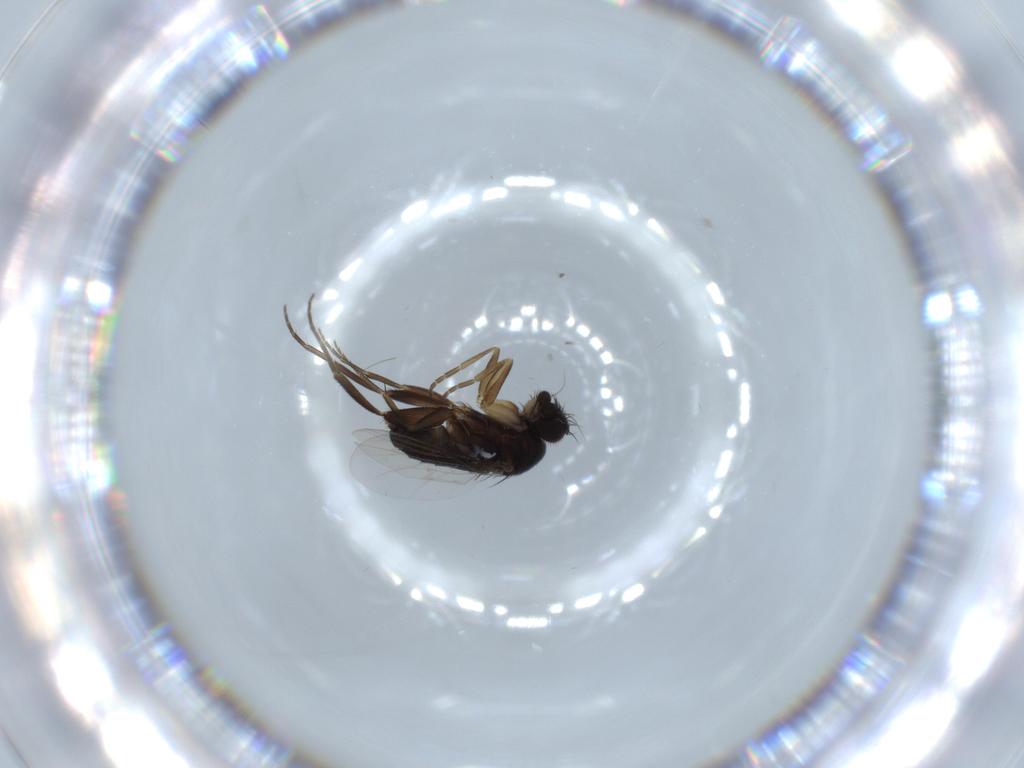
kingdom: Animalia
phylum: Arthropoda
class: Insecta
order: Diptera
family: Phoridae
